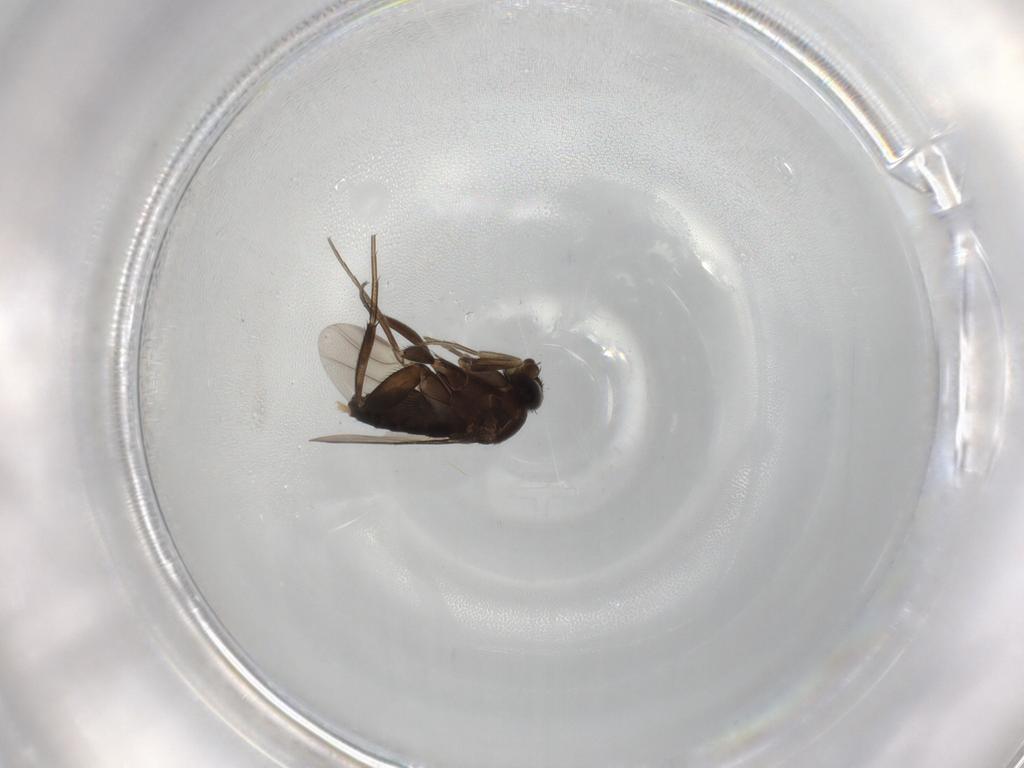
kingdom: Animalia
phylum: Arthropoda
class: Insecta
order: Diptera
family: Phoridae
